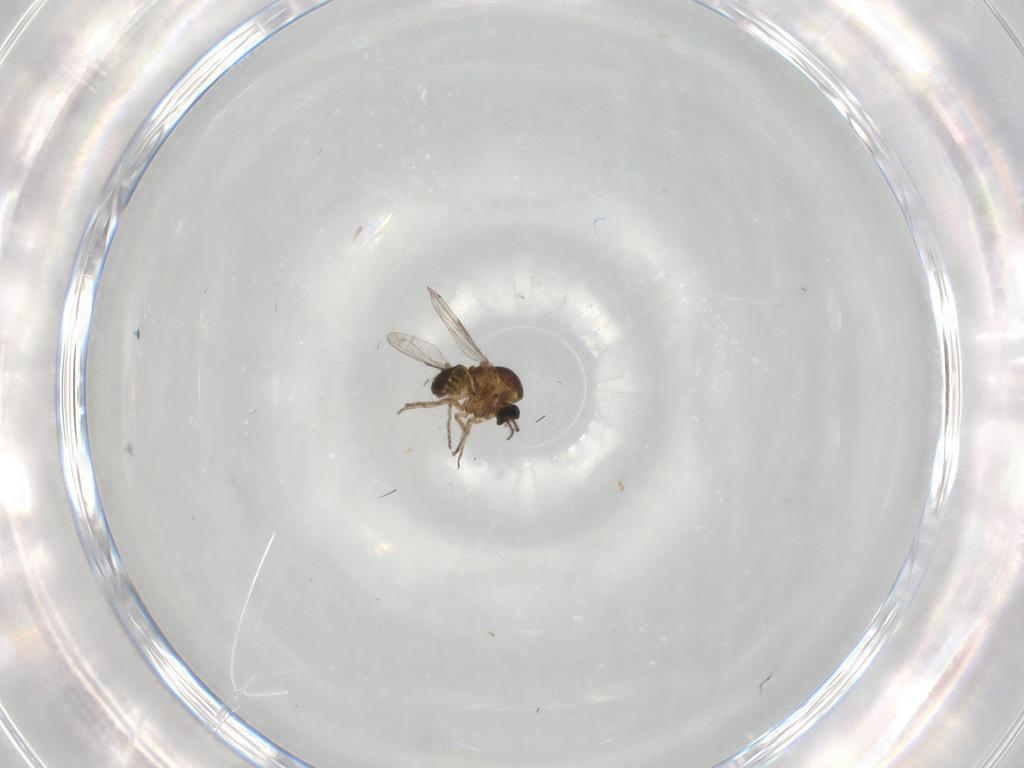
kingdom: Animalia
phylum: Arthropoda
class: Insecta
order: Diptera
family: Ceratopogonidae
